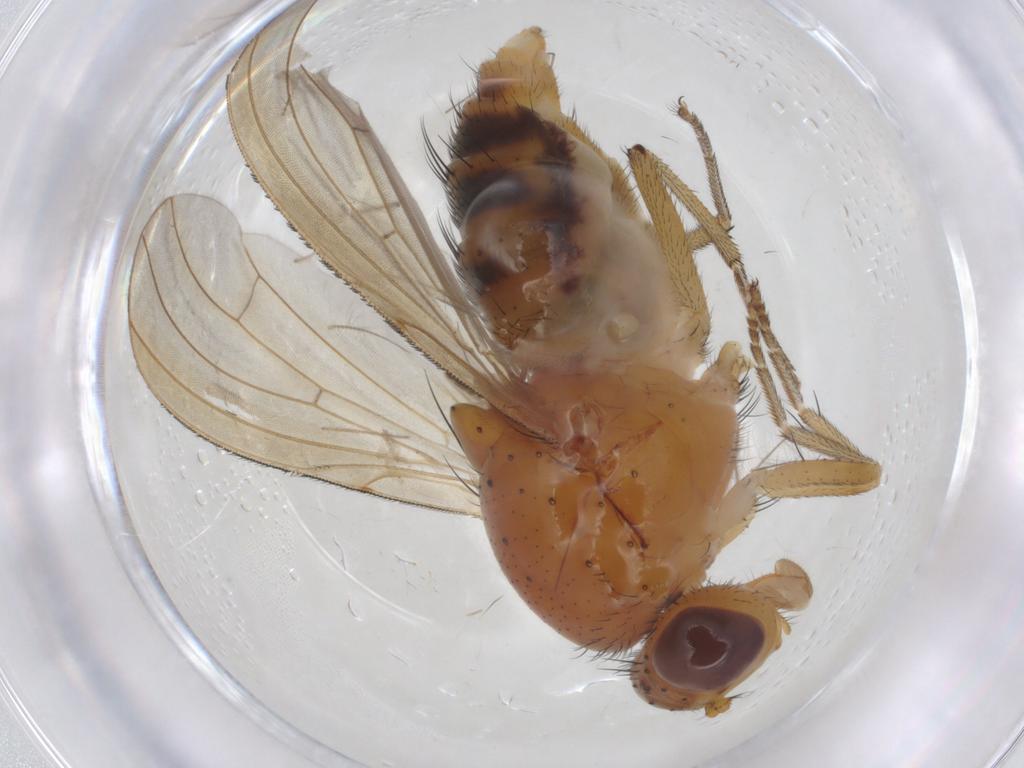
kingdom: Animalia
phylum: Arthropoda
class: Insecta
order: Diptera
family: Chironomidae
